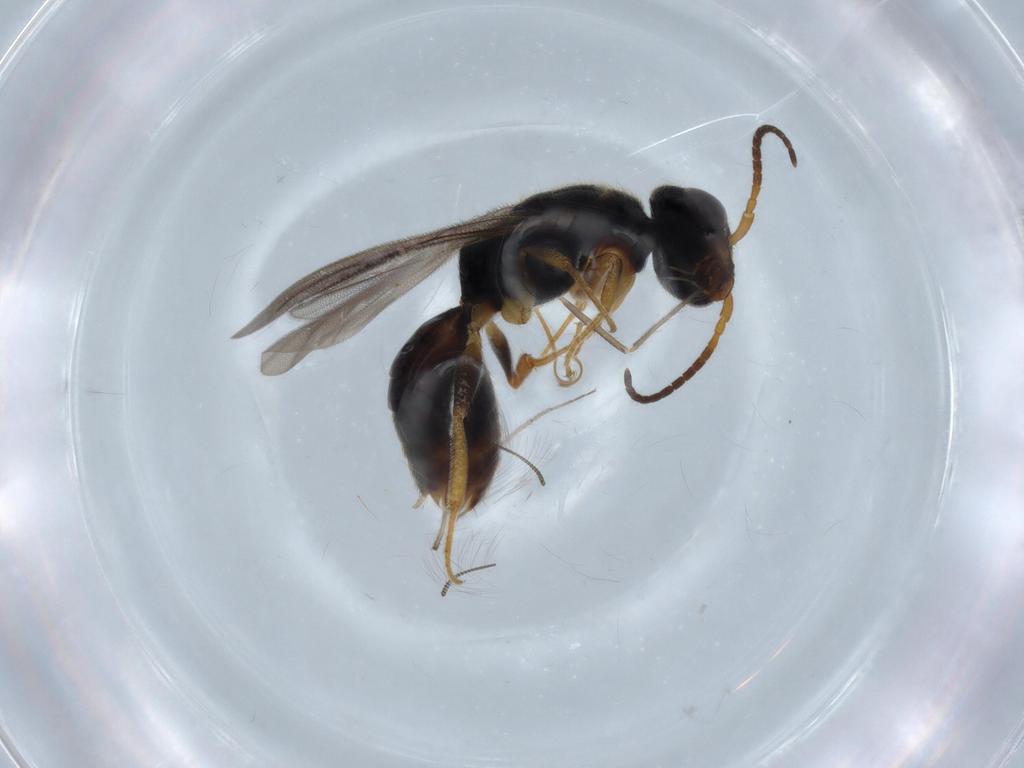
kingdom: Animalia
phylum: Arthropoda
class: Insecta
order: Hymenoptera
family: Bethylidae
